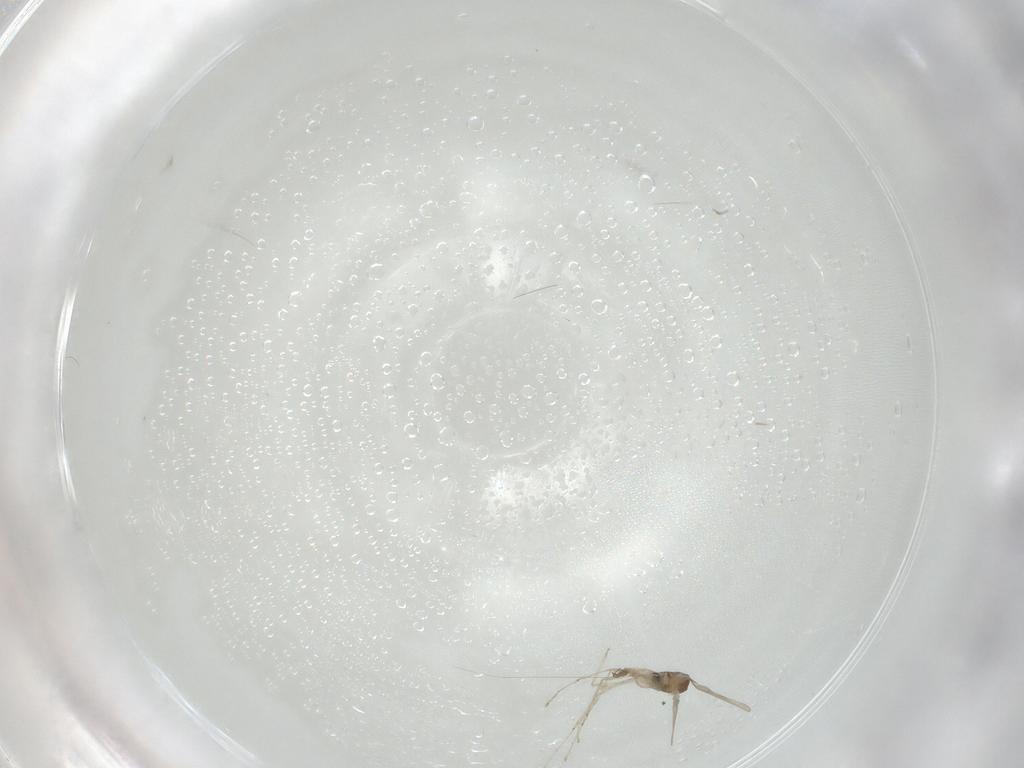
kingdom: Animalia
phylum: Arthropoda
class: Insecta
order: Diptera
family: Cecidomyiidae
